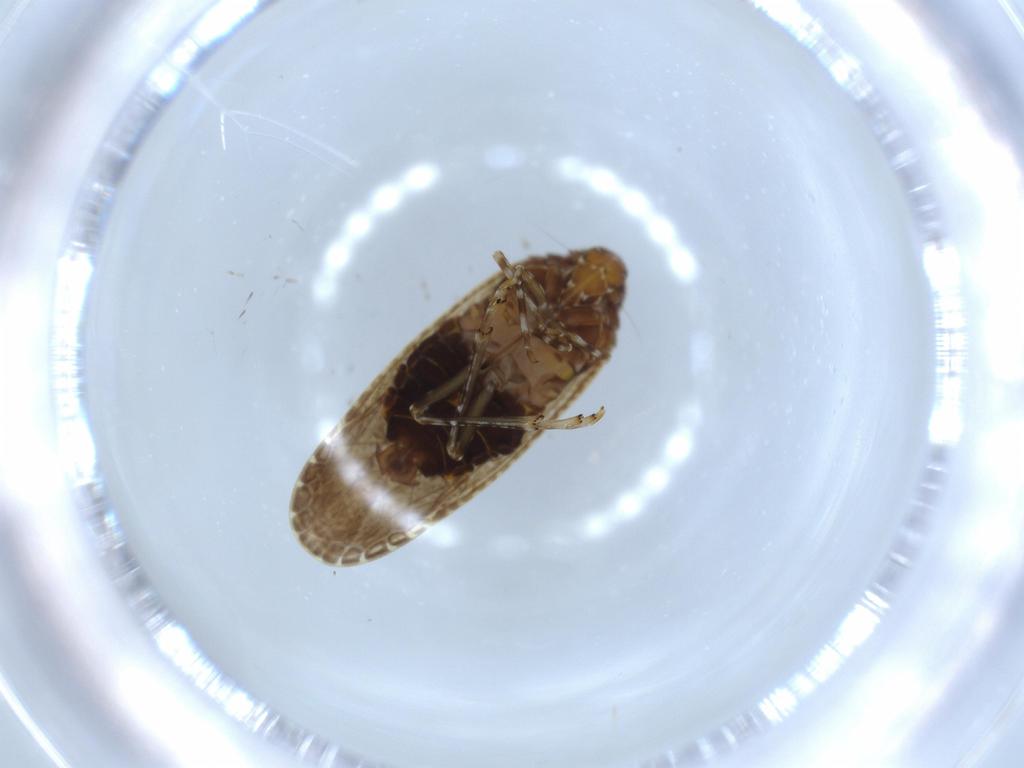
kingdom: Animalia
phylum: Arthropoda
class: Insecta
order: Hemiptera
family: Achilidae
